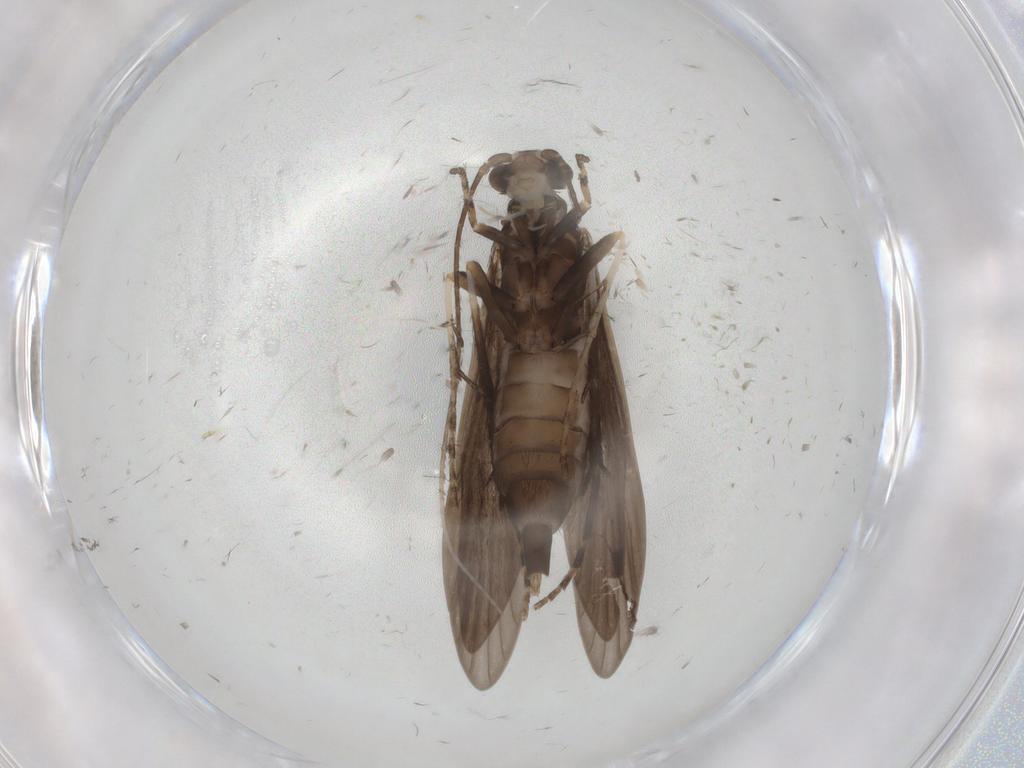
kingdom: Animalia
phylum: Arthropoda
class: Insecta
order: Trichoptera
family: Xiphocentronidae
